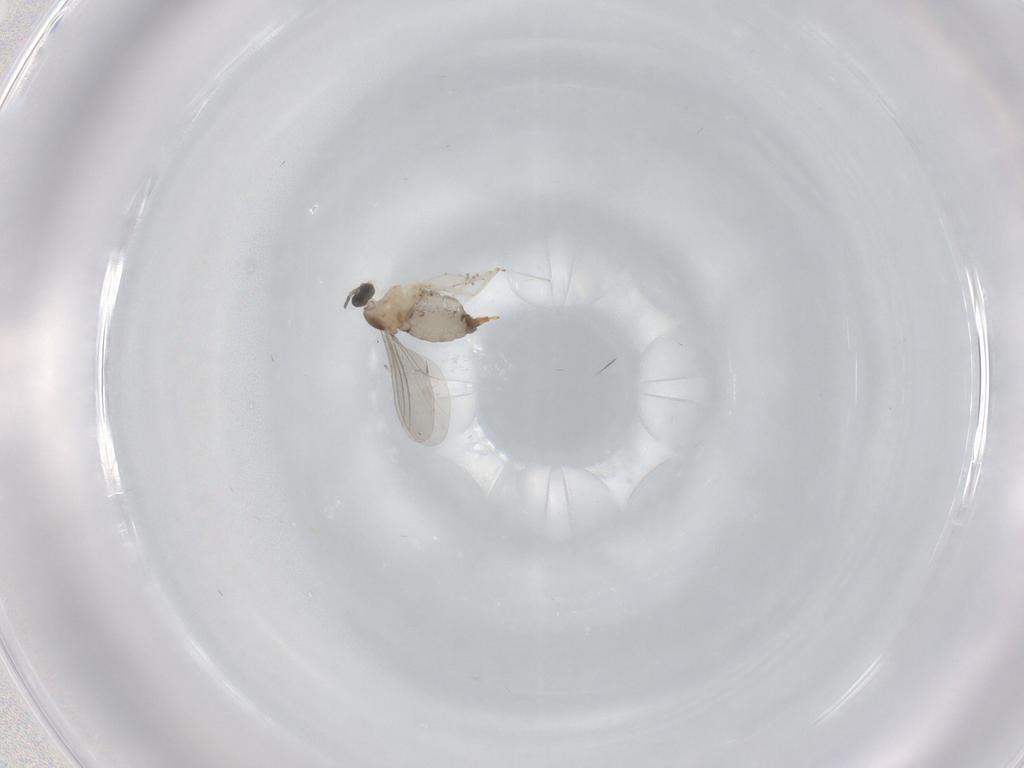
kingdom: Animalia
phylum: Arthropoda
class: Insecta
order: Diptera
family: Cecidomyiidae
